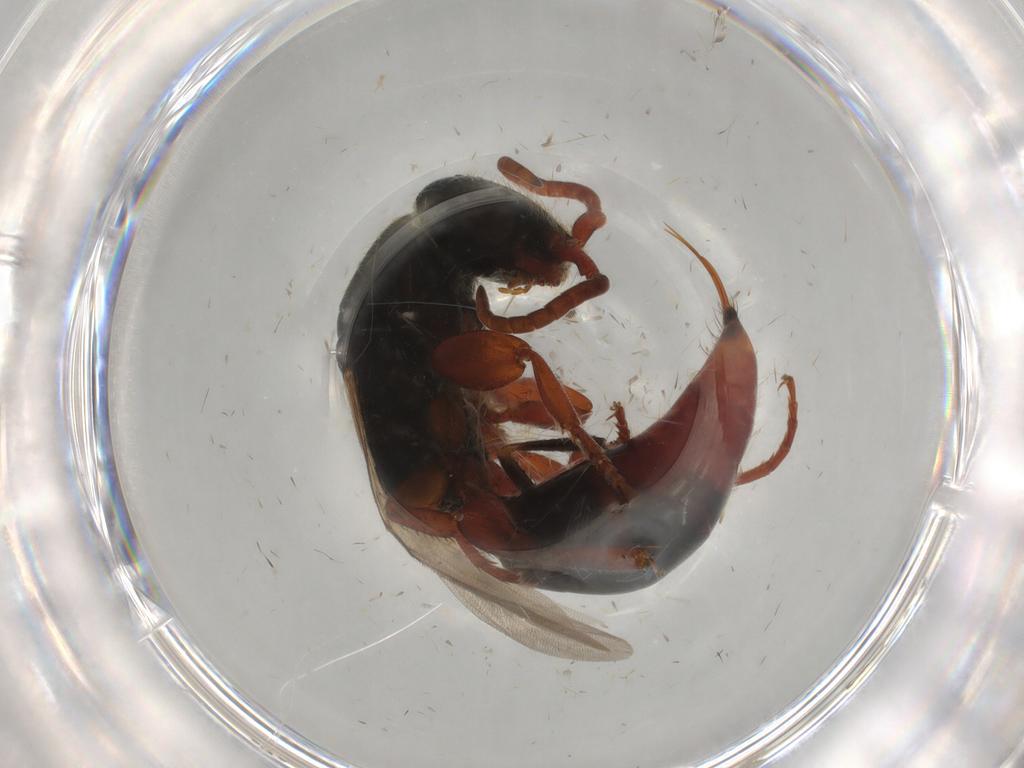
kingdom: Animalia
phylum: Arthropoda
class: Insecta
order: Hymenoptera
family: Bethylidae
